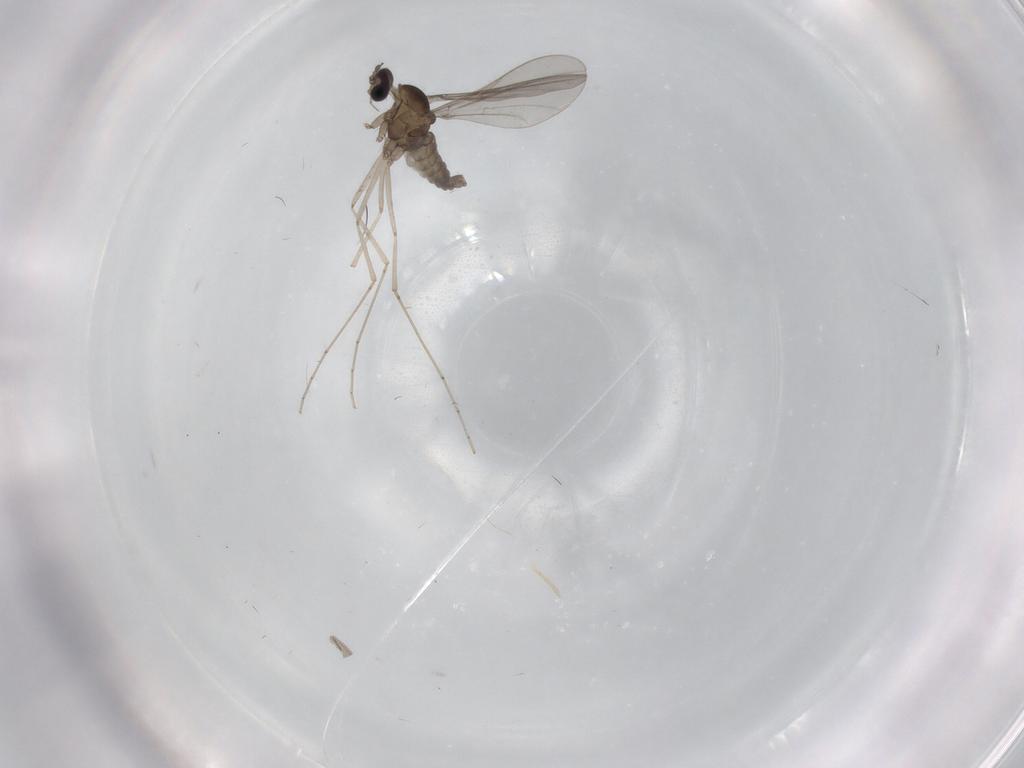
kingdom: Animalia
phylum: Arthropoda
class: Insecta
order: Diptera
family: Cecidomyiidae
